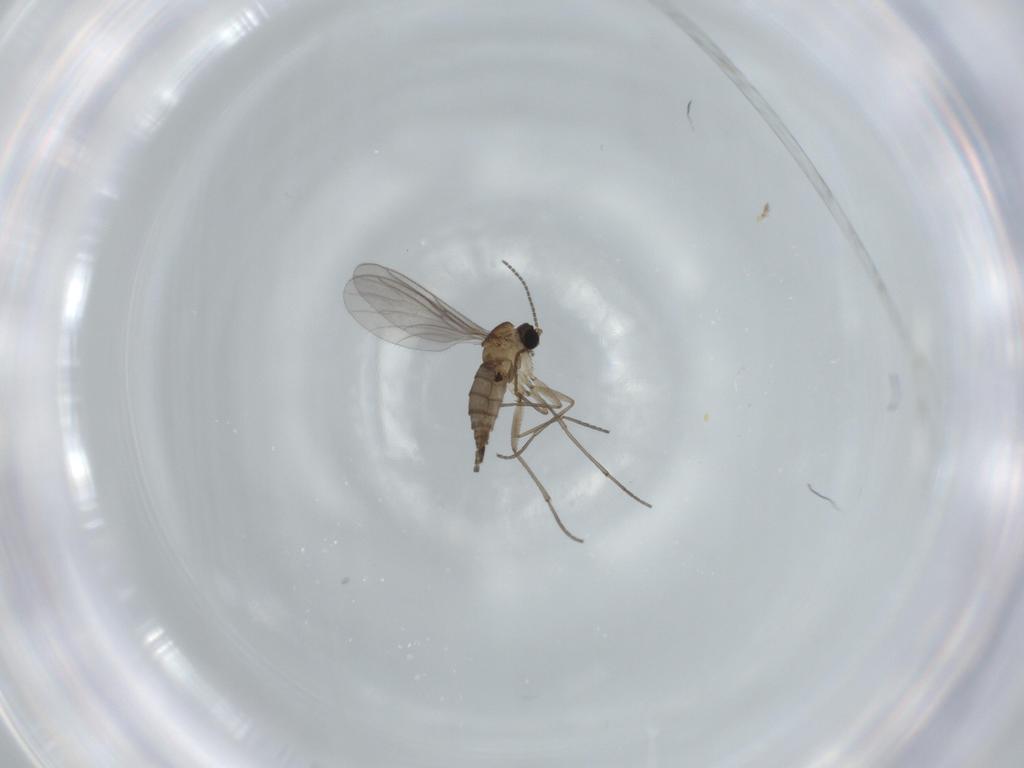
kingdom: Animalia
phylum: Arthropoda
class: Insecta
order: Diptera
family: Sciaridae
